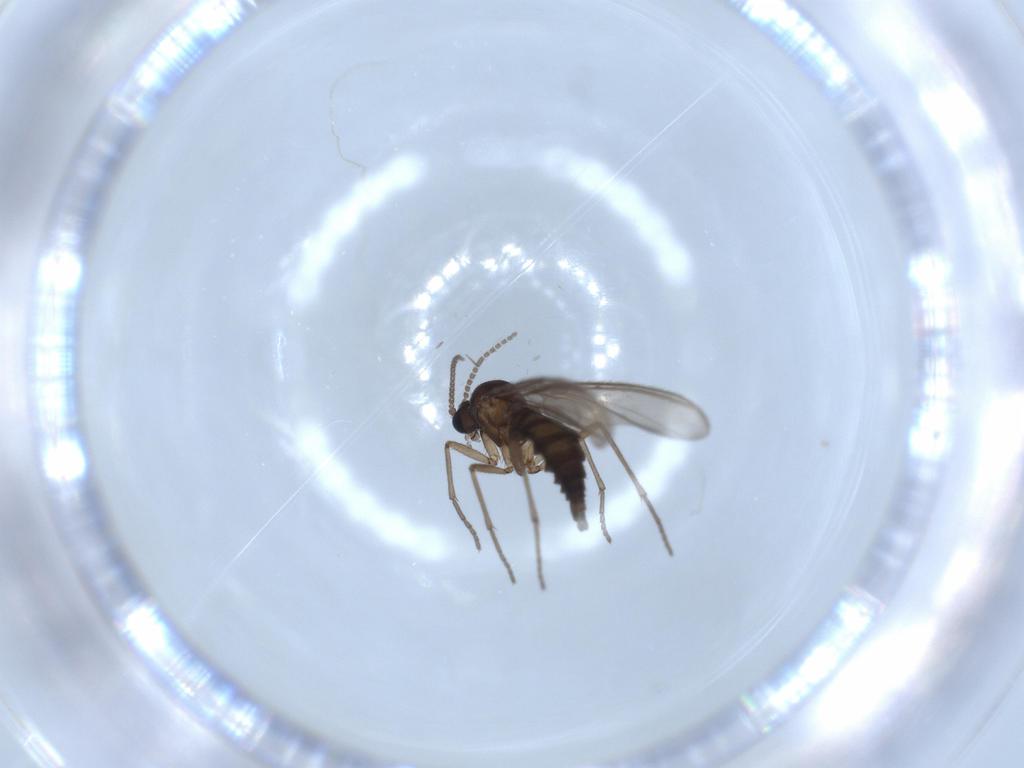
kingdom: Animalia
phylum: Arthropoda
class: Insecta
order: Diptera
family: Sciaridae
